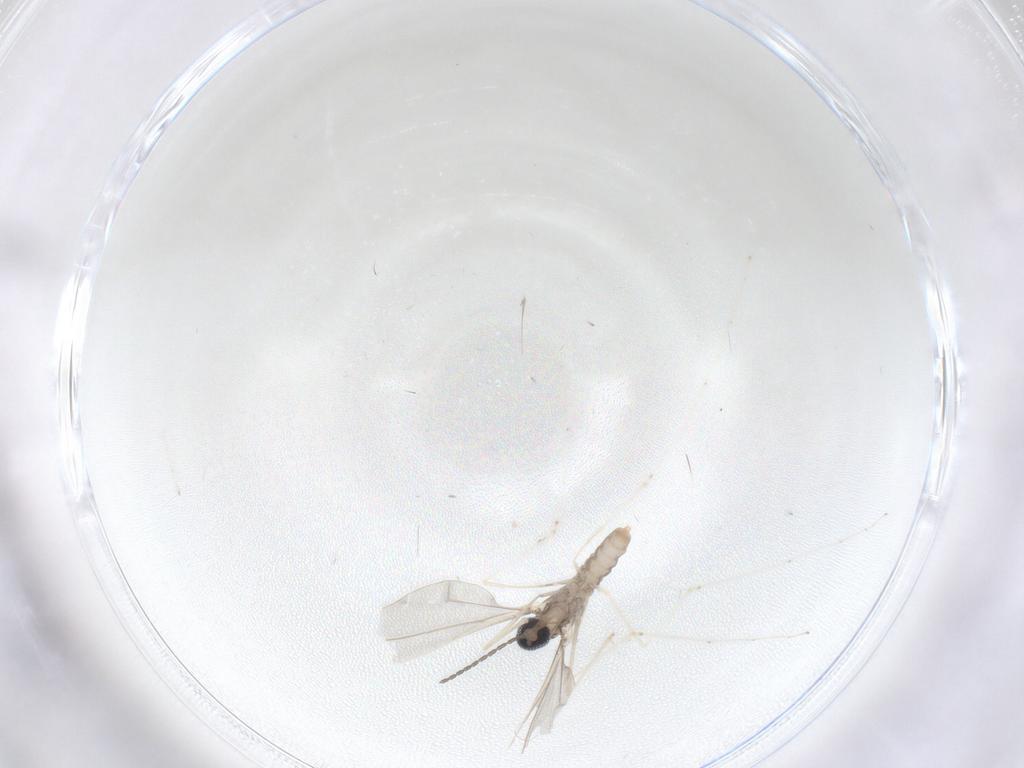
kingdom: Animalia
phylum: Arthropoda
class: Insecta
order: Diptera
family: Cecidomyiidae
